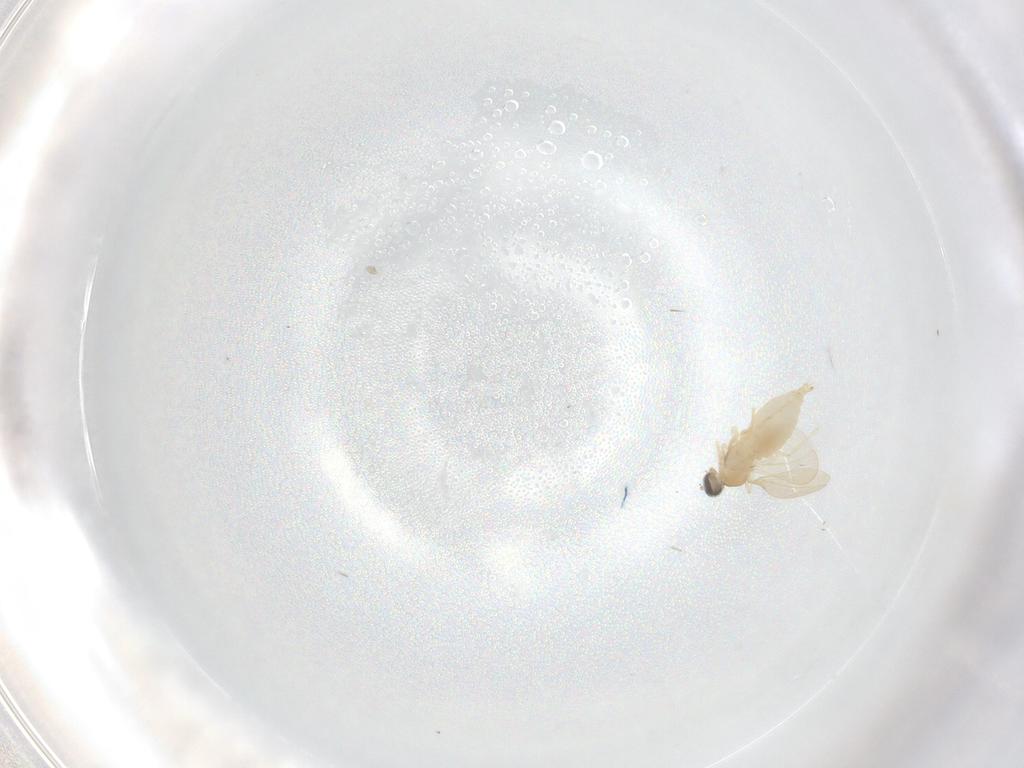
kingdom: Animalia
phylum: Arthropoda
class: Insecta
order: Diptera
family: Cecidomyiidae
